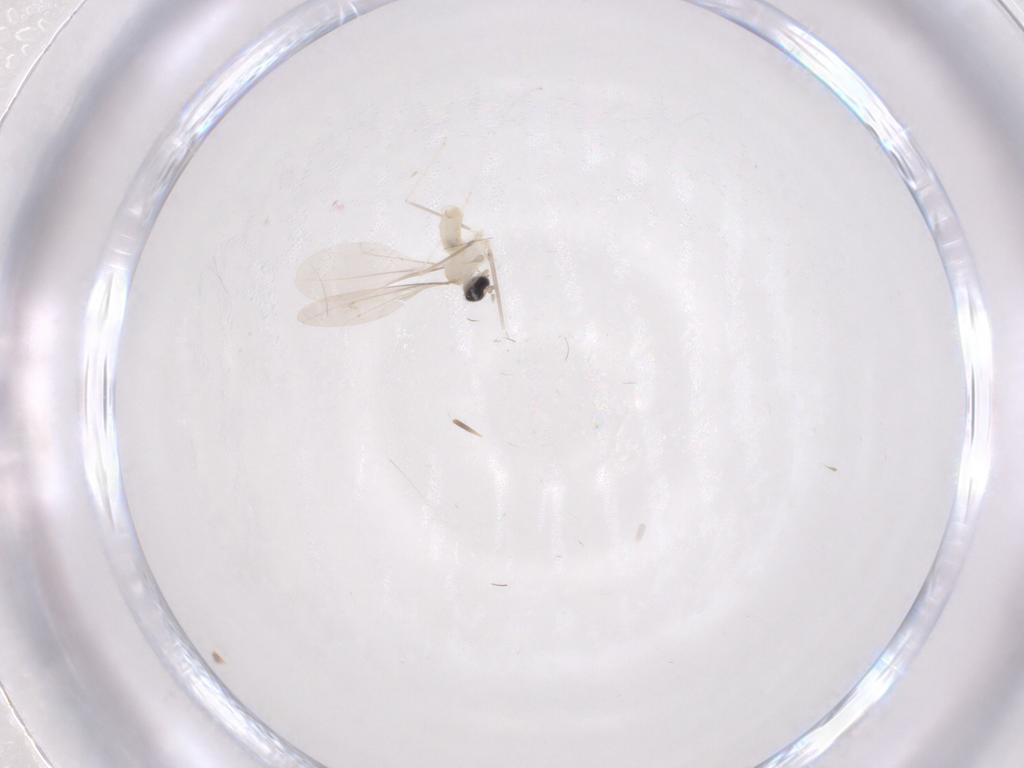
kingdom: Animalia
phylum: Arthropoda
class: Insecta
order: Diptera
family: Cecidomyiidae
